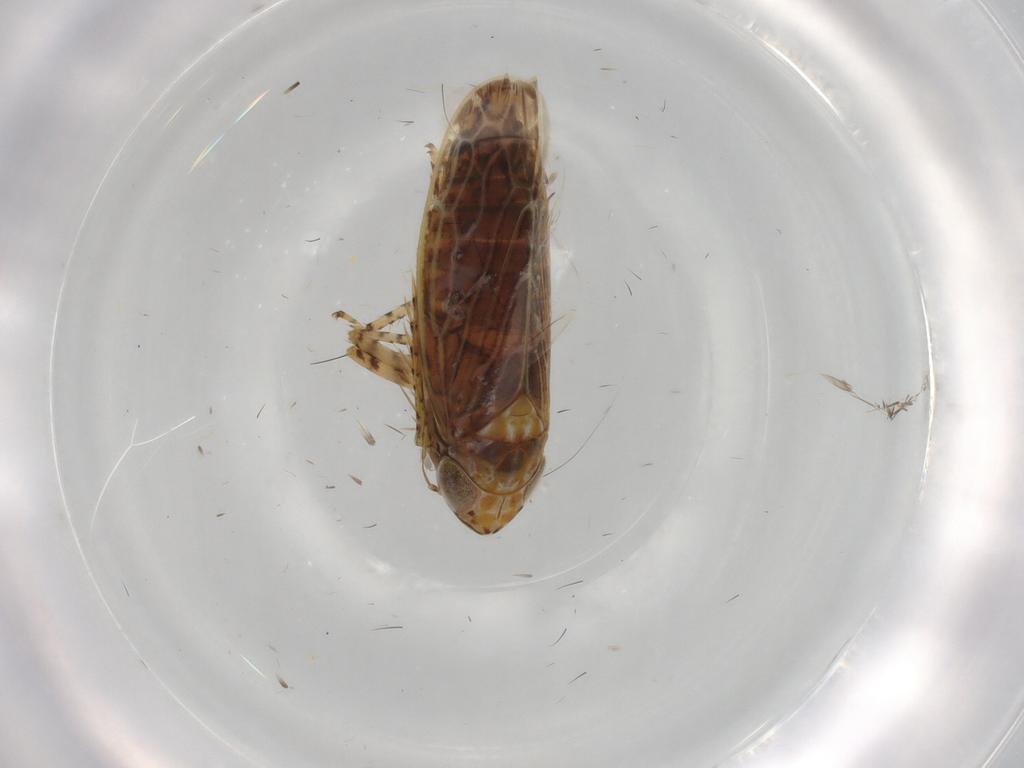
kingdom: Animalia
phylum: Arthropoda
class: Insecta
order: Hemiptera
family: Cicadellidae
